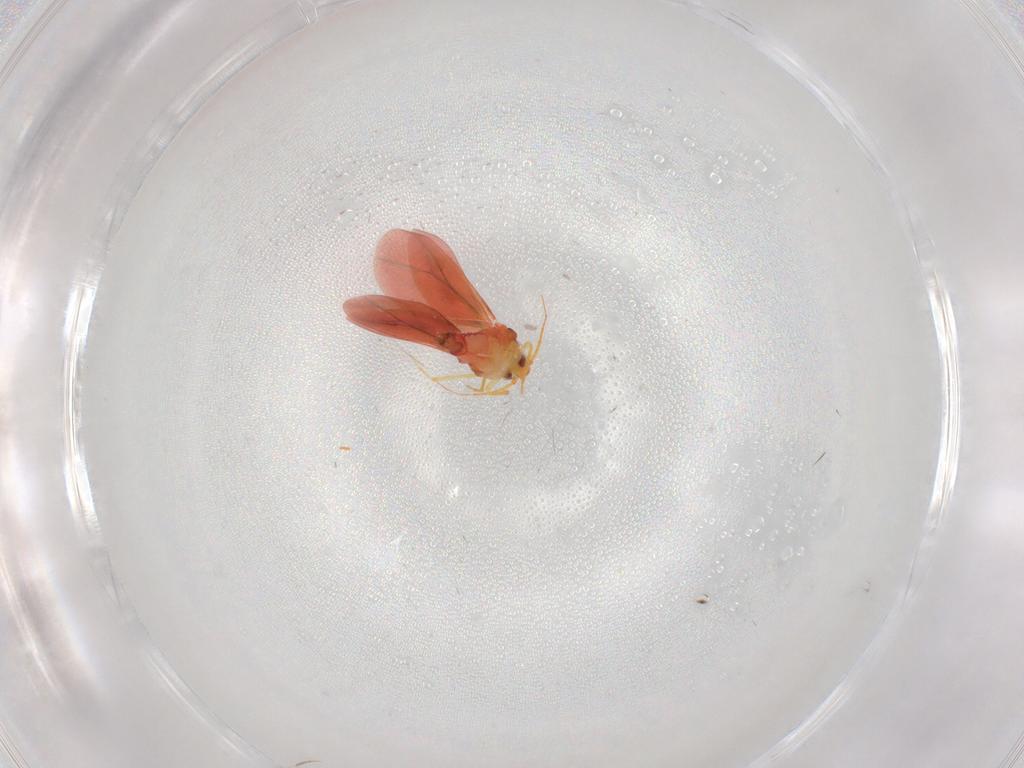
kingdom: Animalia
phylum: Arthropoda
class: Insecta
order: Hemiptera
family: Aleyrodidae
